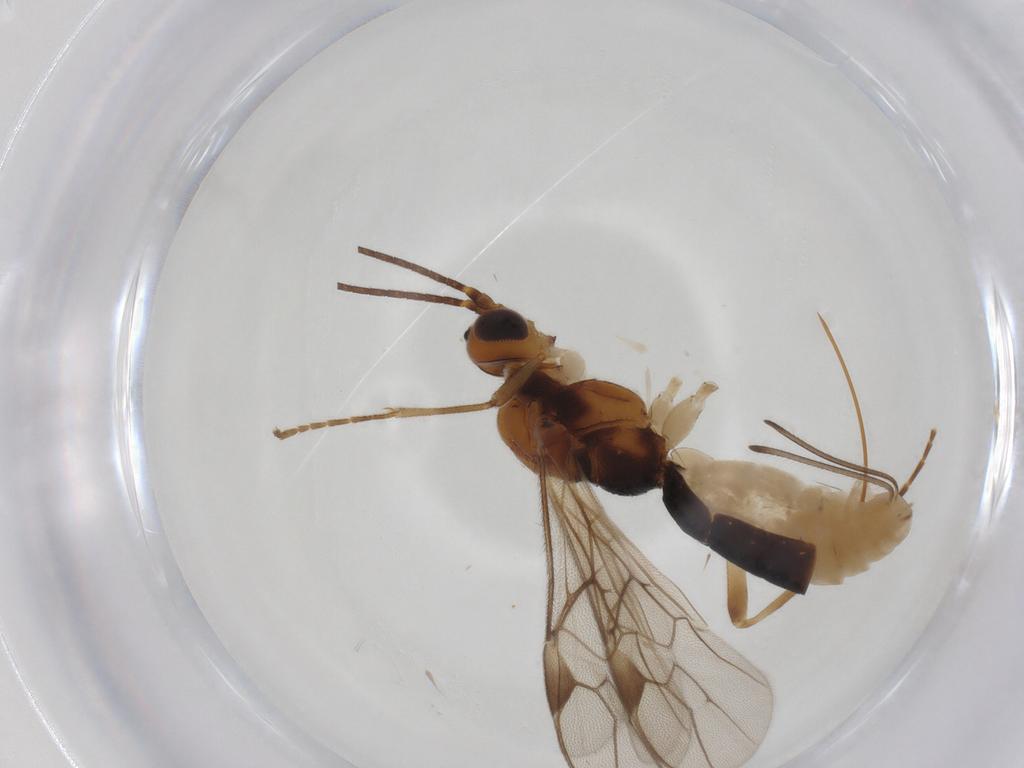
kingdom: Animalia
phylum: Arthropoda
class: Insecta
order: Hymenoptera
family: Braconidae
